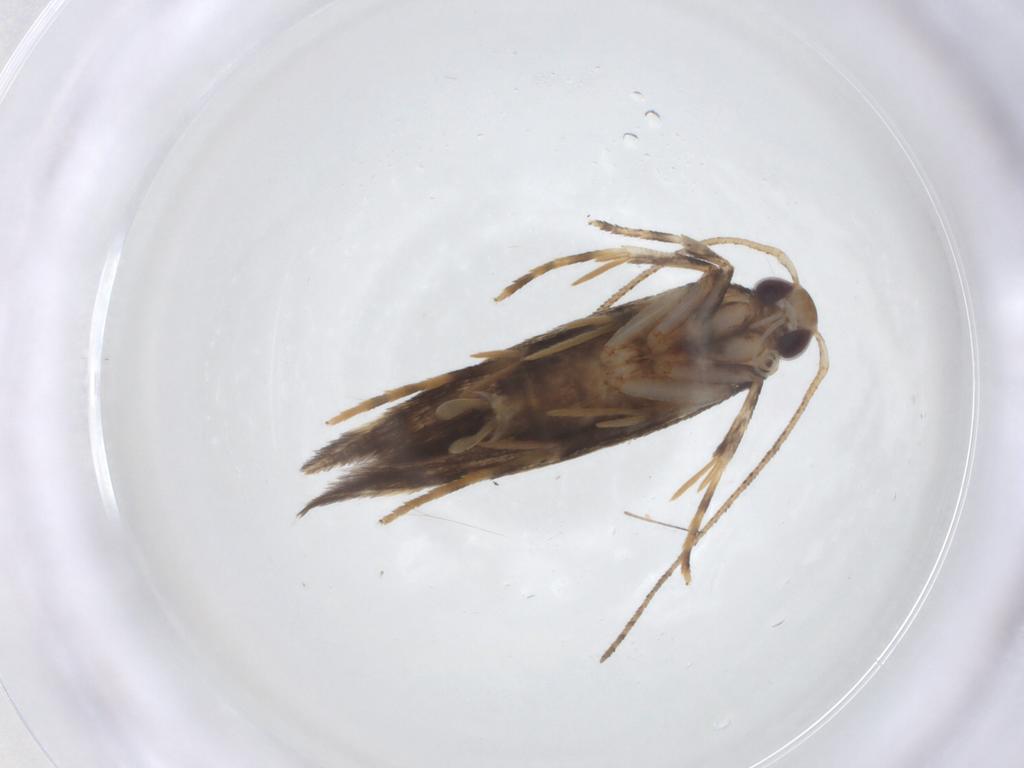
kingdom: Animalia
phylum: Arthropoda
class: Insecta
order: Lepidoptera
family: Cosmopterigidae
